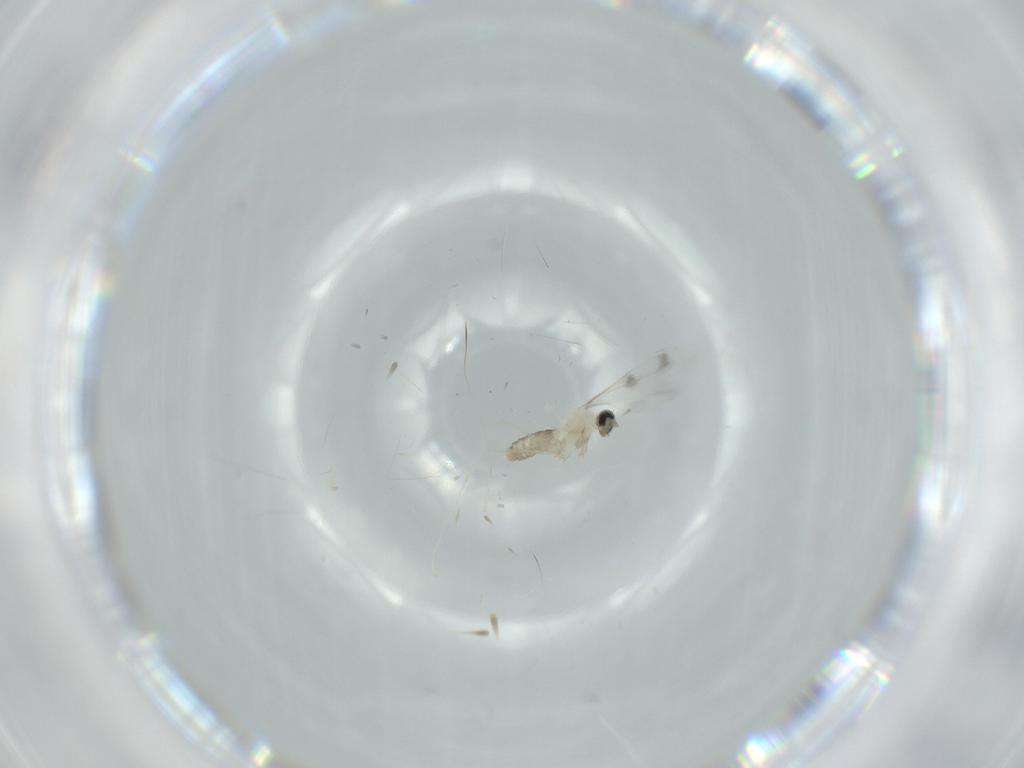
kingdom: Animalia
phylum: Arthropoda
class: Insecta
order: Diptera
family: Cecidomyiidae
